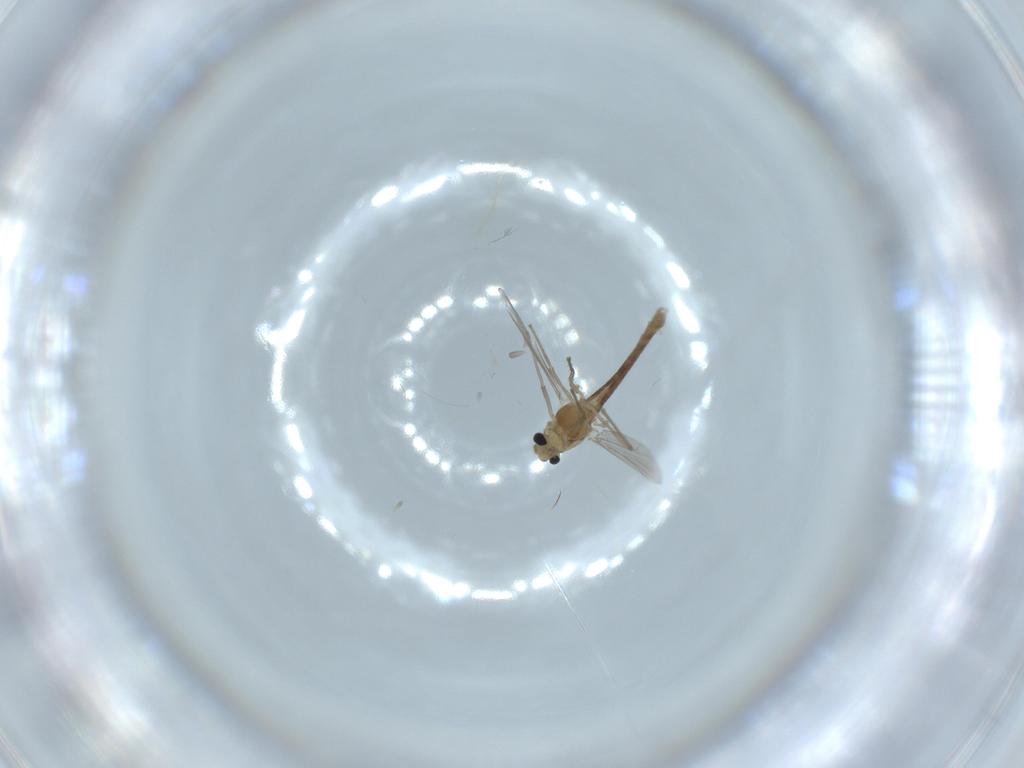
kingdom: Animalia
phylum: Arthropoda
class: Insecta
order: Diptera
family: Chironomidae
